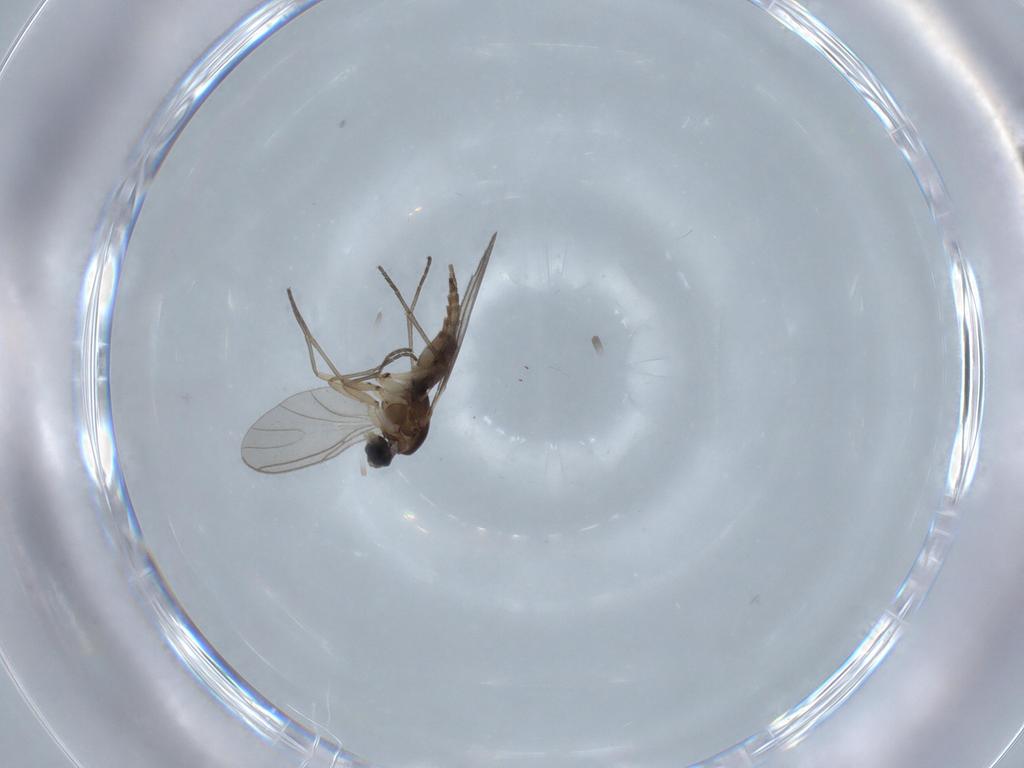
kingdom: Animalia
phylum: Arthropoda
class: Insecta
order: Diptera
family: Sciaridae
